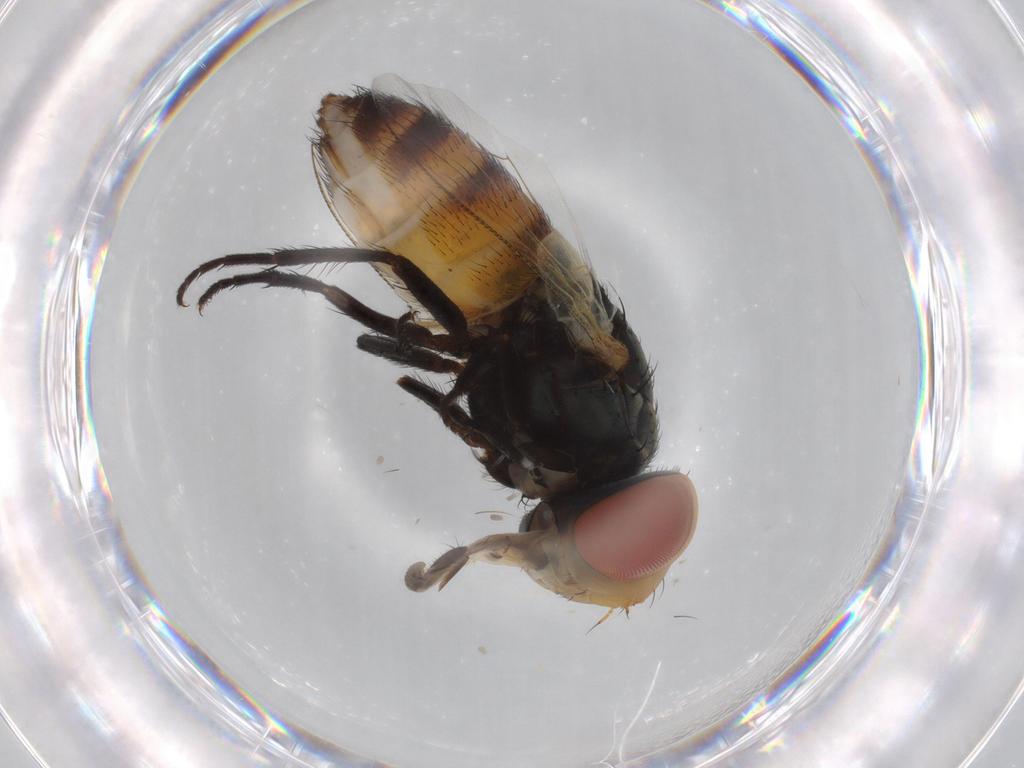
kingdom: Animalia
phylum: Arthropoda
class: Insecta
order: Diptera
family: Sarcophagidae
